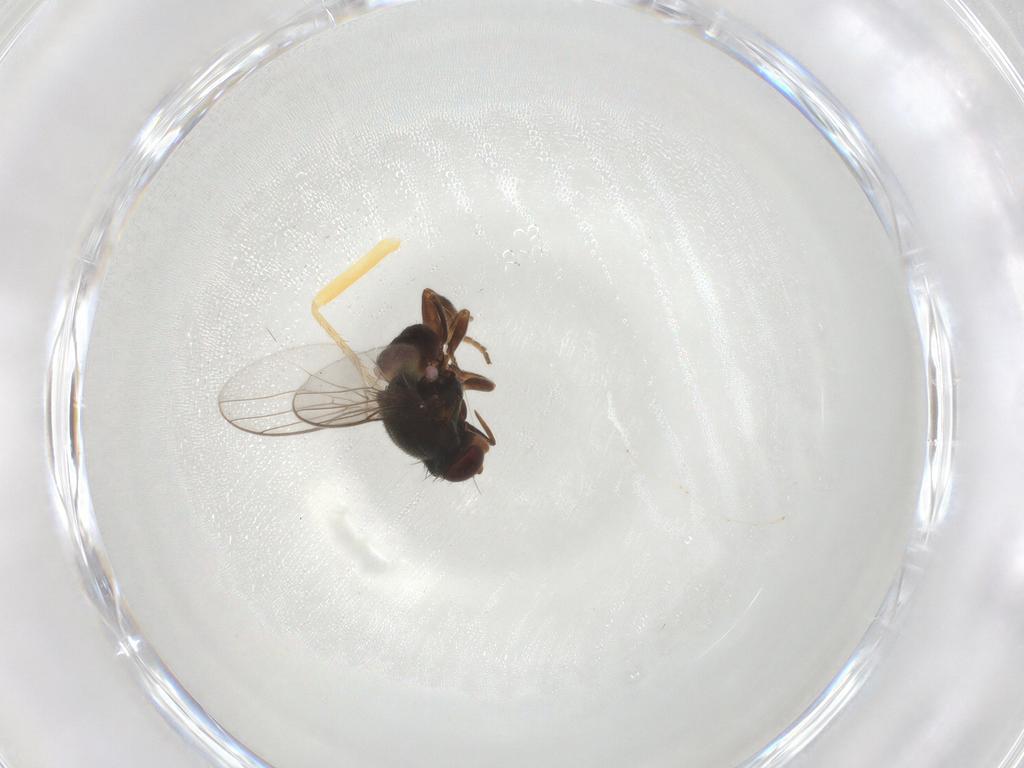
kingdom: Animalia
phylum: Arthropoda
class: Insecta
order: Diptera
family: Chloropidae
